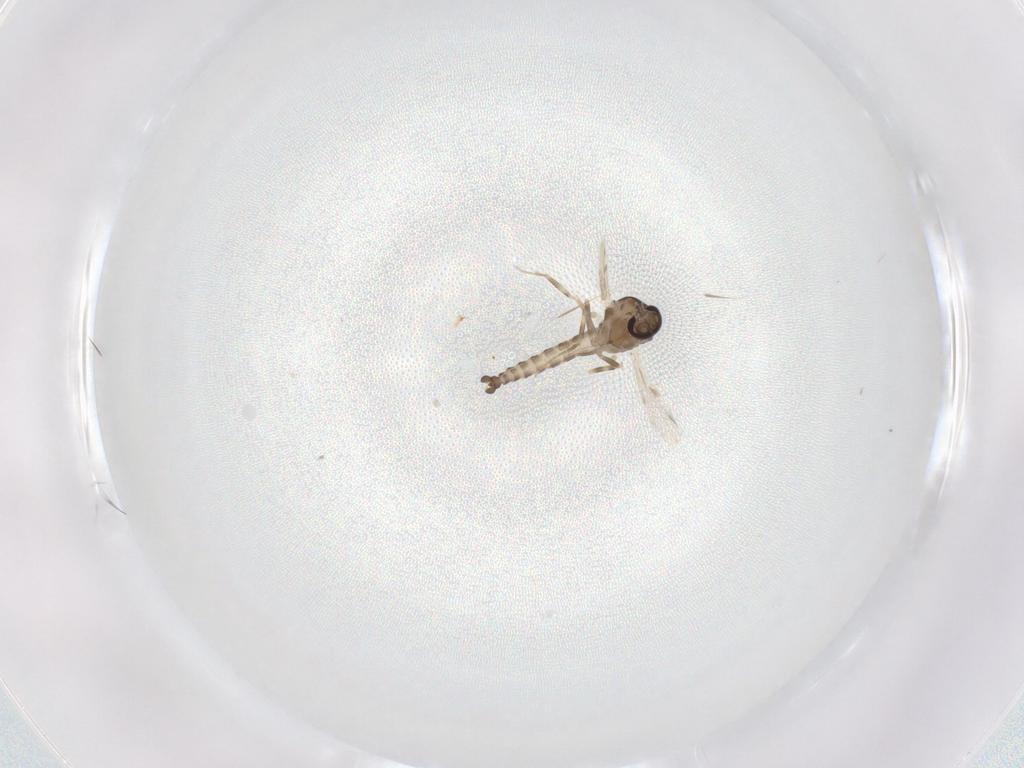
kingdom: Animalia
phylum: Arthropoda
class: Insecta
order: Diptera
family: Ceratopogonidae
